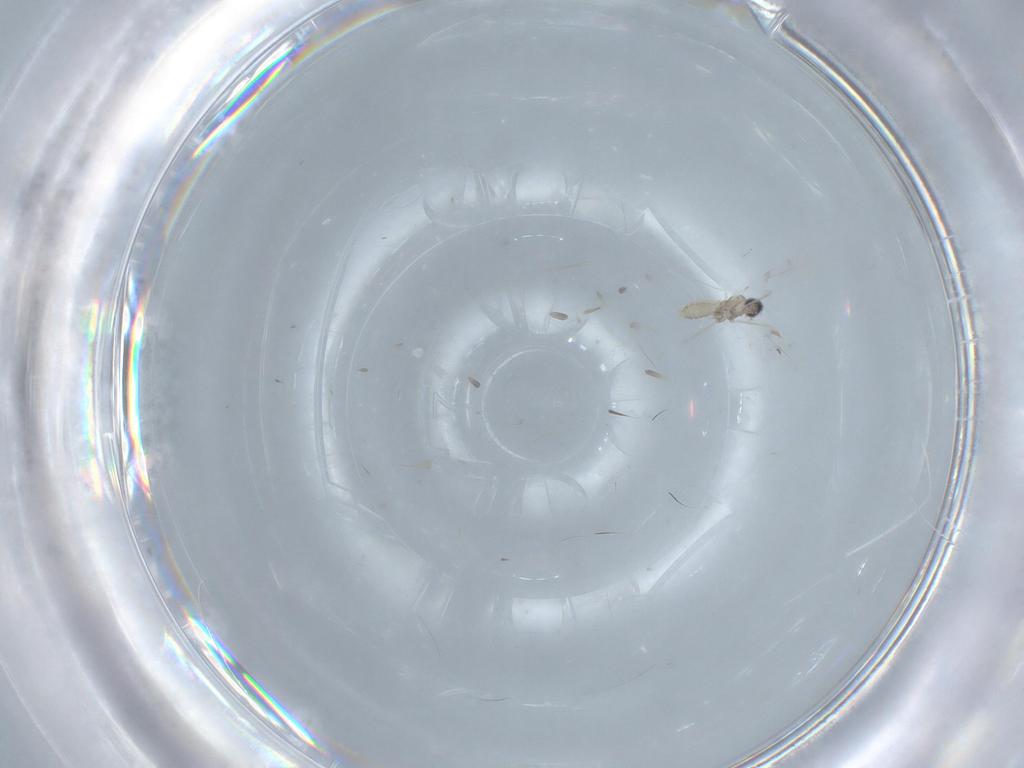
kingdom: Animalia
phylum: Arthropoda
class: Insecta
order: Diptera
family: Cecidomyiidae
